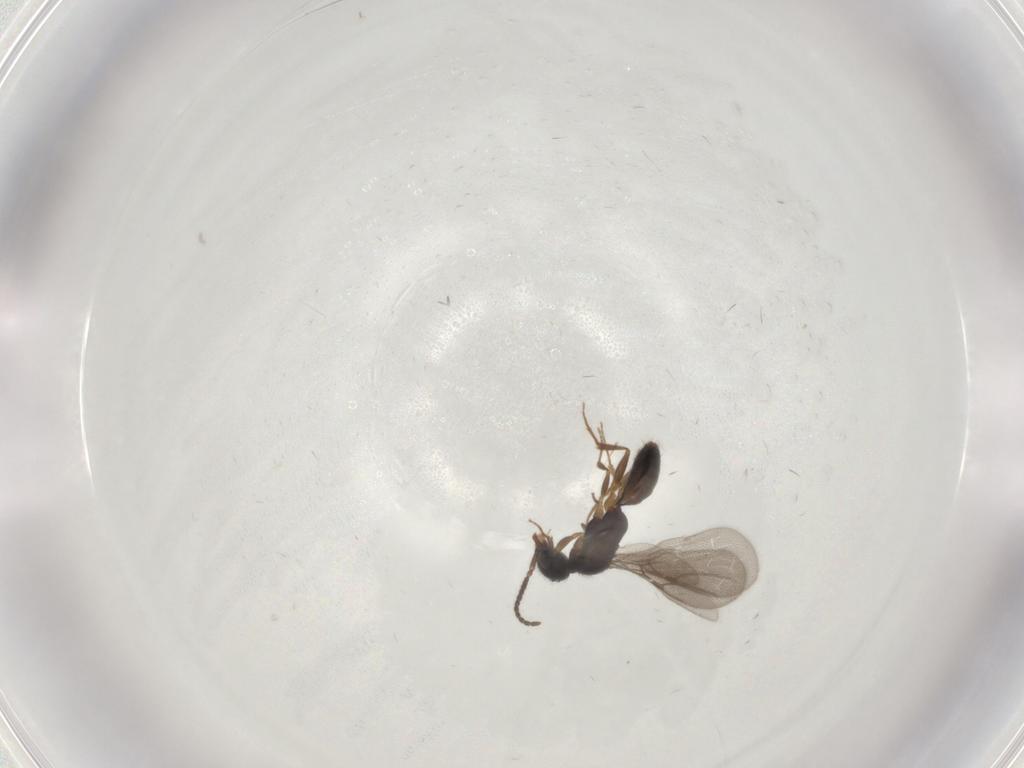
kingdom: Animalia
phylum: Arthropoda
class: Insecta
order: Hymenoptera
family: Bethylidae
